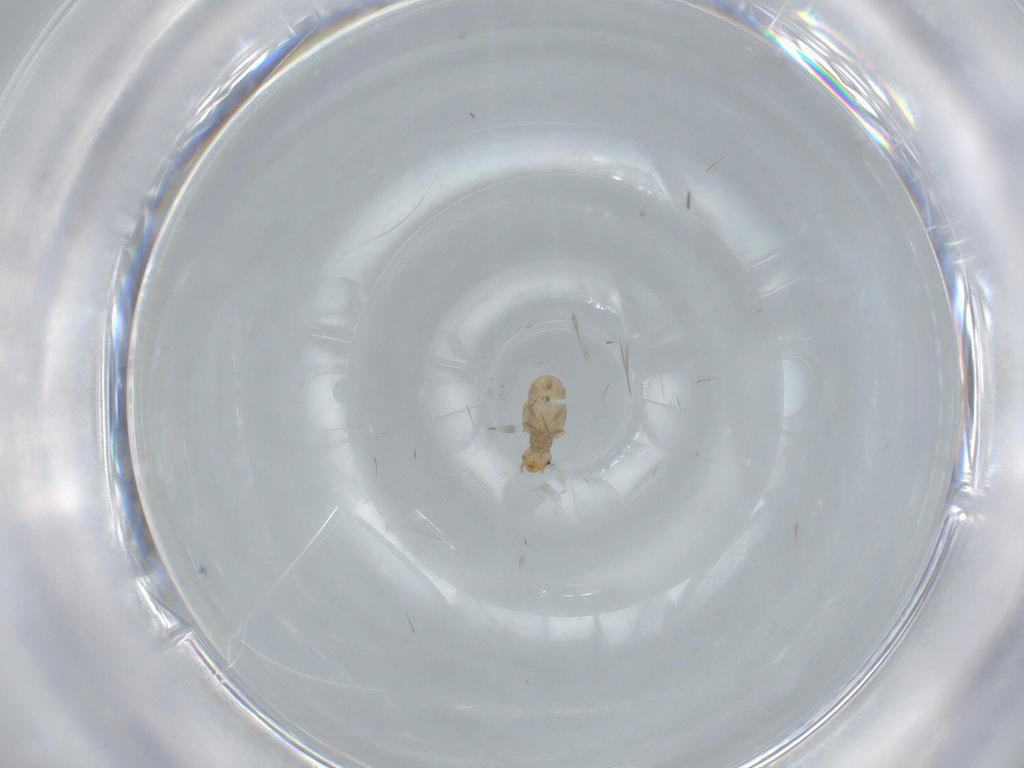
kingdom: Animalia
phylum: Arthropoda
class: Insecta
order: Psocodea
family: Liposcelididae
